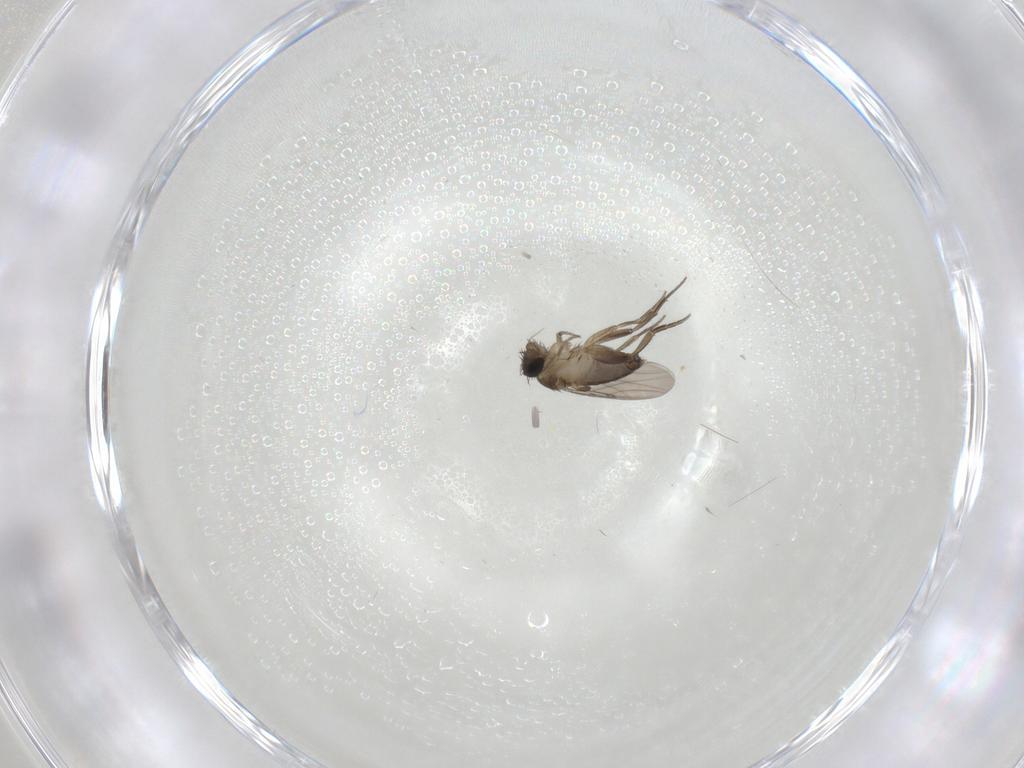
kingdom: Animalia
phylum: Arthropoda
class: Insecta
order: Diptera
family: Phoridae
